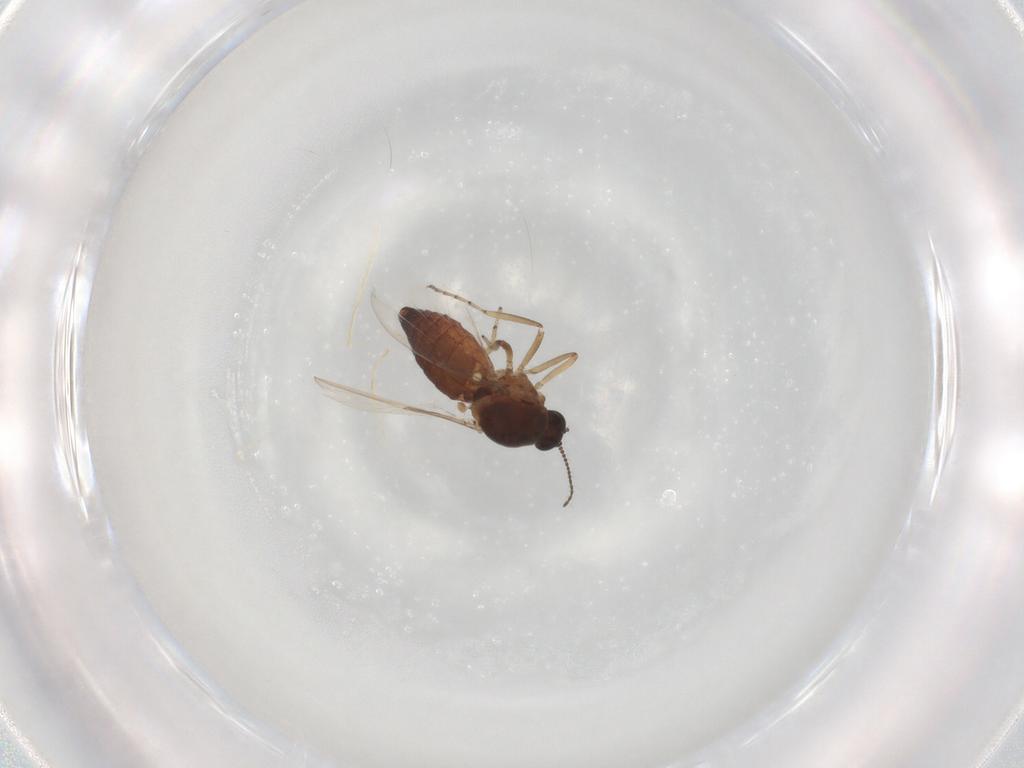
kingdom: Animalia
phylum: Arthropoda
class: Insecta
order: Diptera
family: Ceratopogonidae
